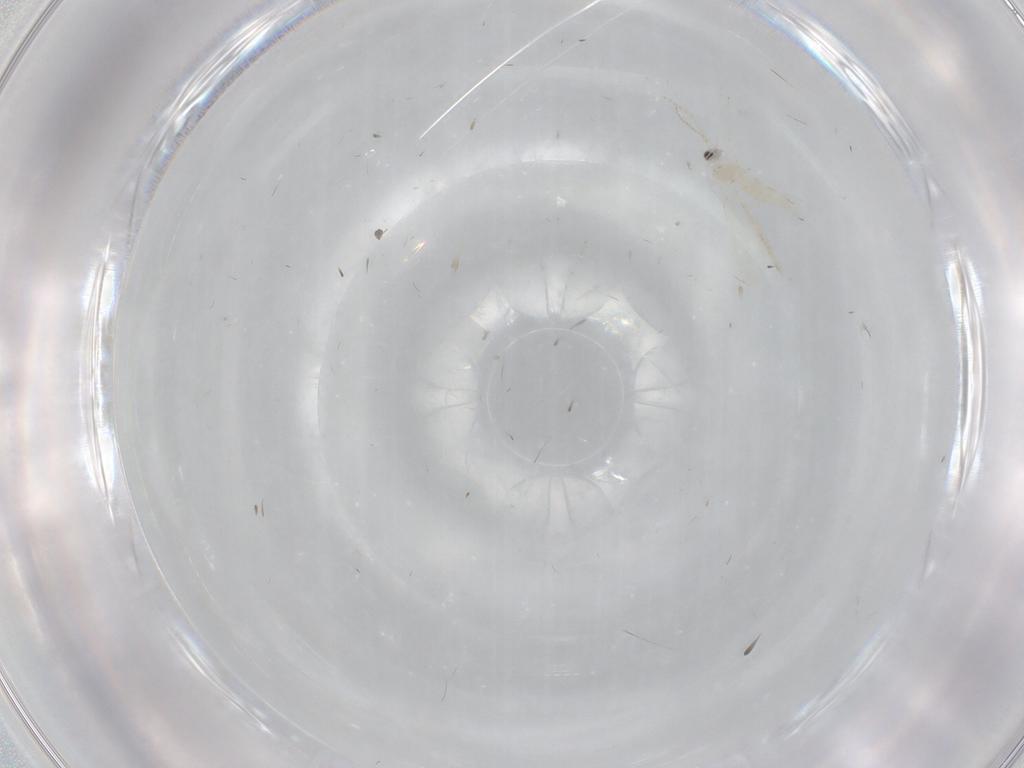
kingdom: Animalia
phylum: Arthropoda
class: Insecta
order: Diptera
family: Cecidomyiidae
